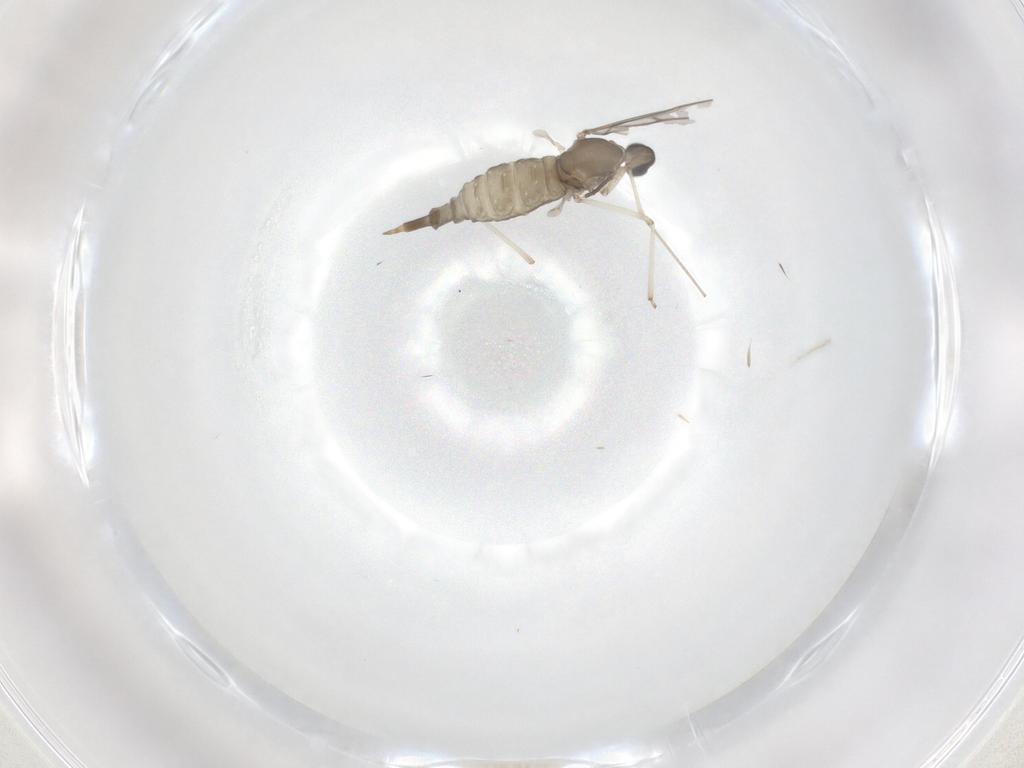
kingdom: Animalia
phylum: Arthropoda
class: Insecta
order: Diptera
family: Cecidomyiidae
